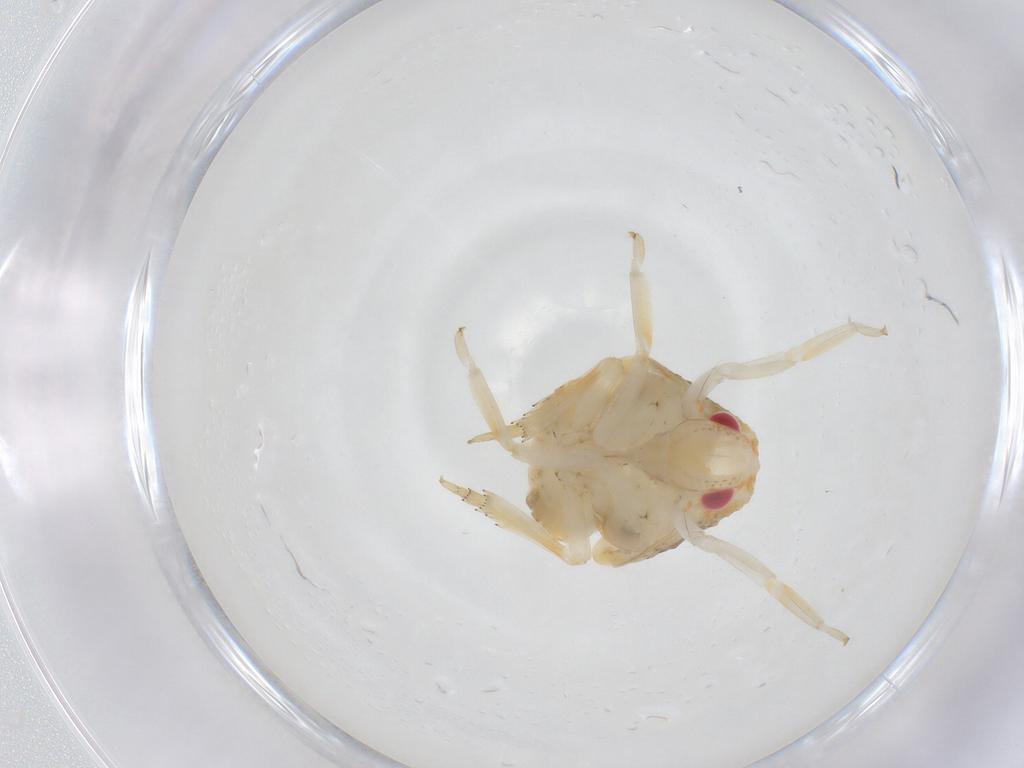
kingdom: Animalia
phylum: Arthropoda
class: Insecta
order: Hemiptera
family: Fulgoroidea_incertae_sedis
